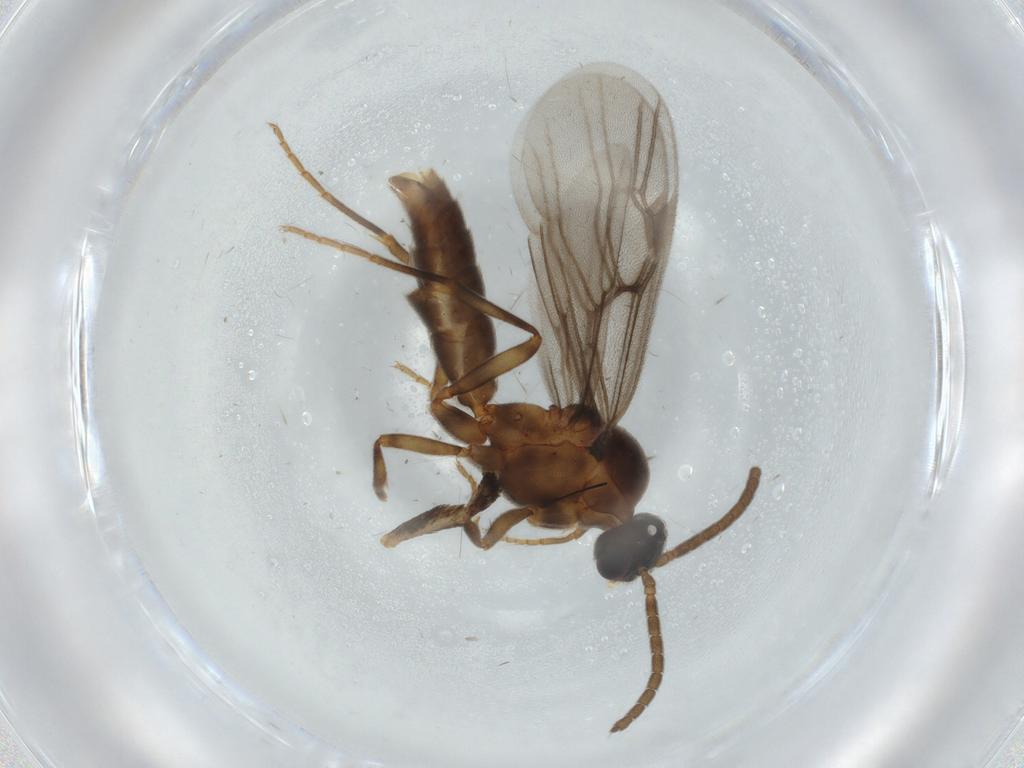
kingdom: Animalia
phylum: Arthropoda
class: Insecta
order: Hymenoptera
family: Formicidae
